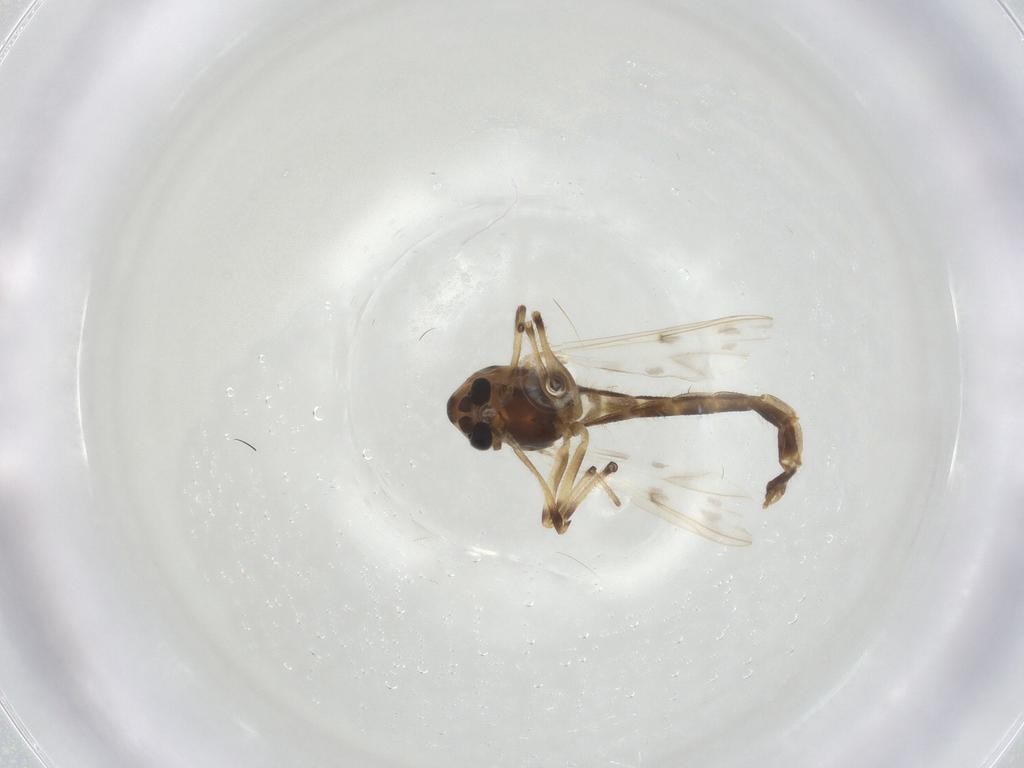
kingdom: Animalia
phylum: Arthropoda
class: Insecta
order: Diptera
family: Chironomidae
